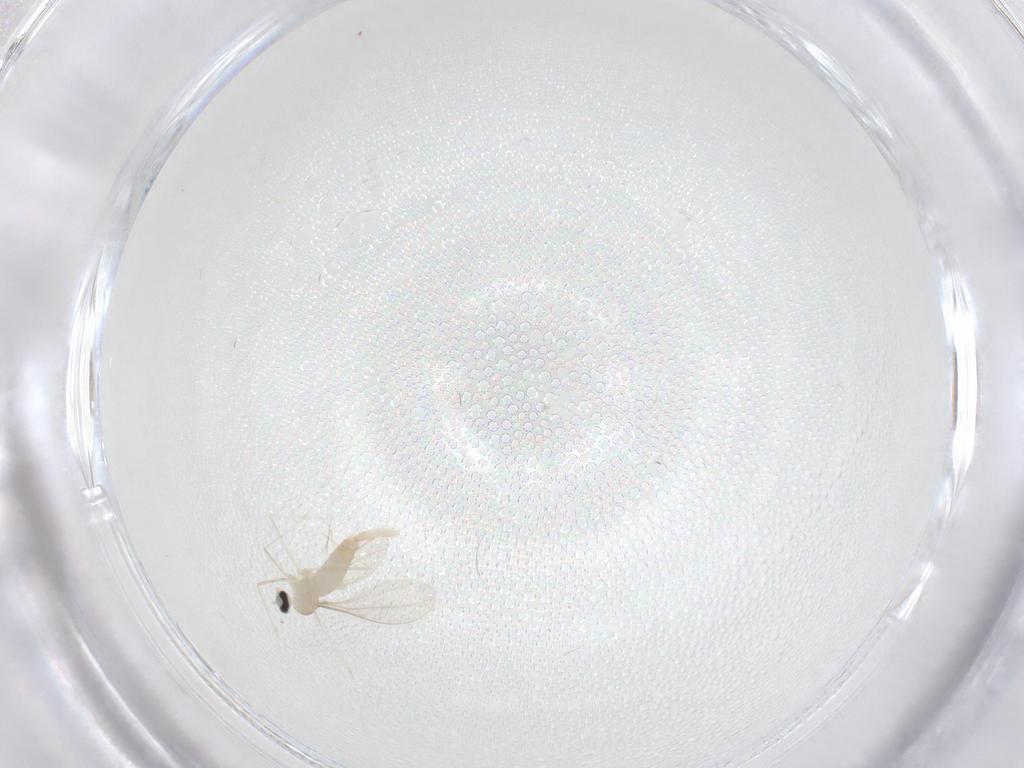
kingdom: Animalia
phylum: Arthropoda
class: Insecta
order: Diptera
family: Cecidomyiidae
